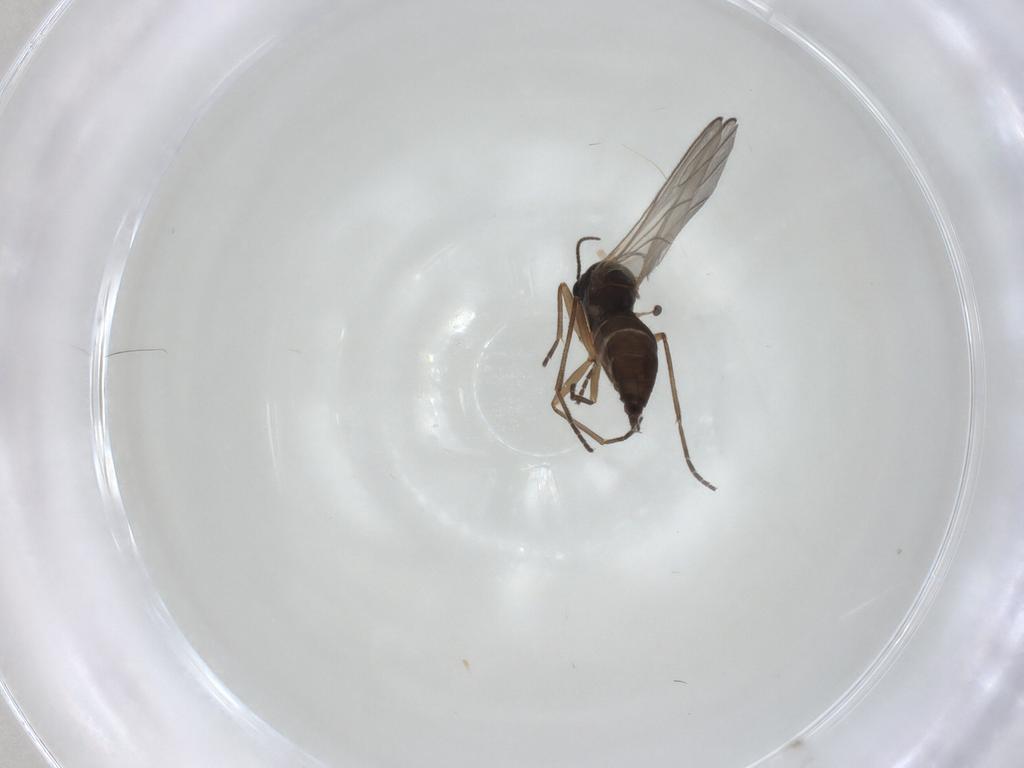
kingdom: Animalia
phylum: Arthropoda
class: Insecta
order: Diptera
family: Sciaridae
